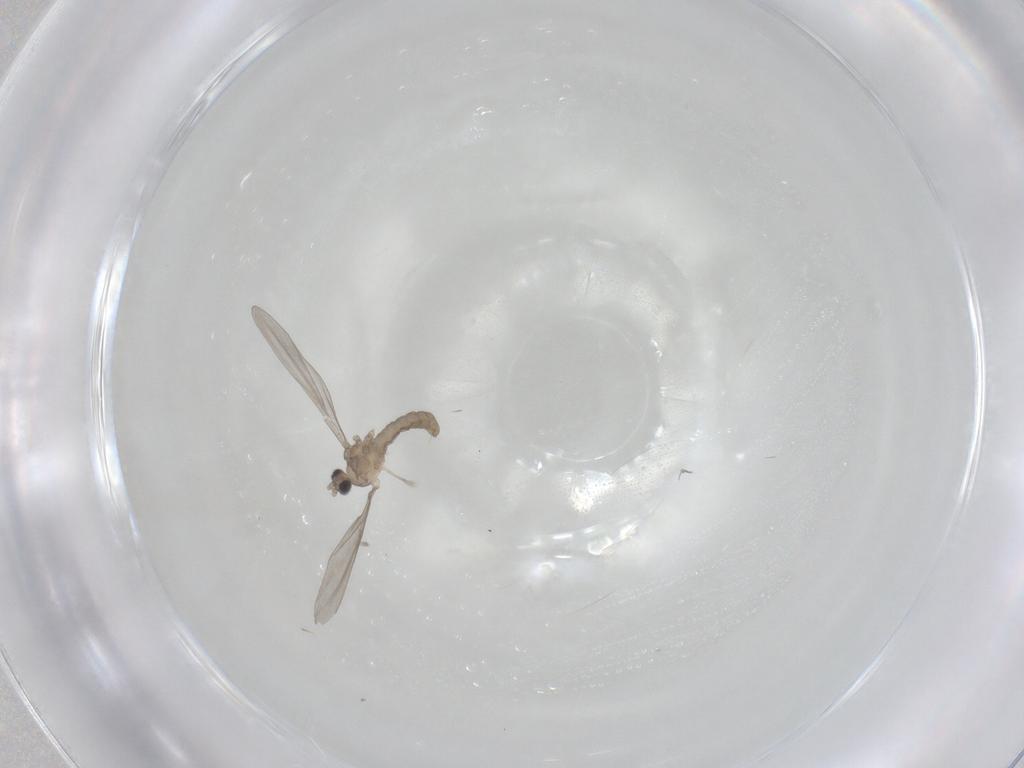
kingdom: Animalia
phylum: Arthropoda
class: Insecta
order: Diptera
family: Cecidomyiidae
